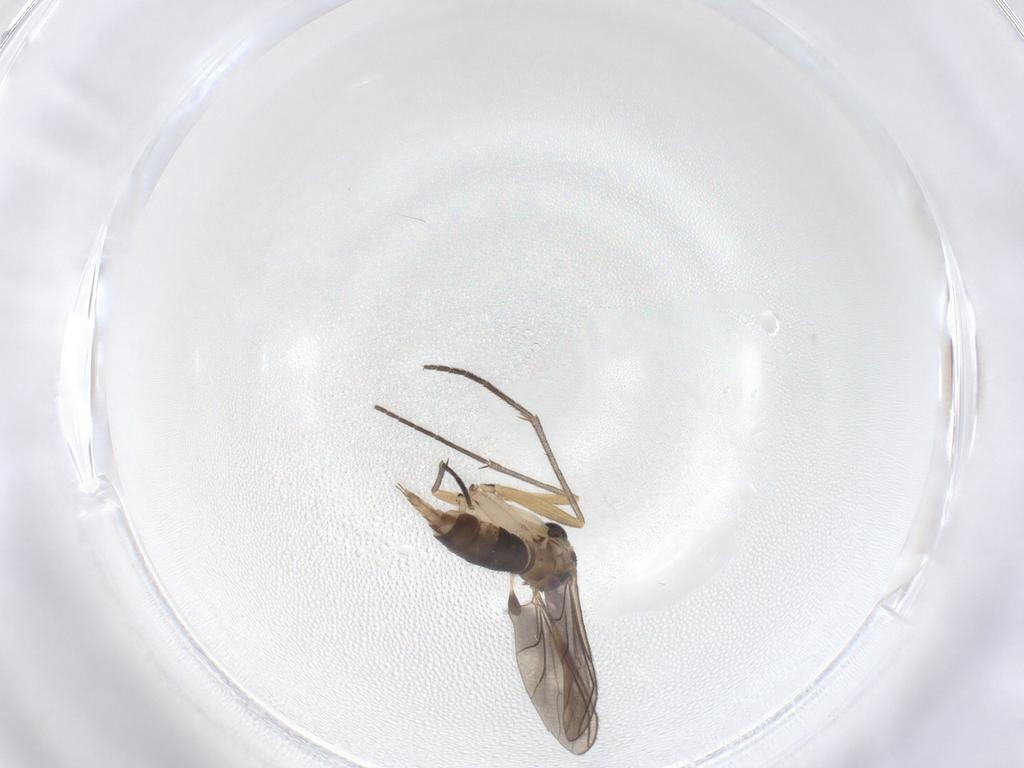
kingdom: Animalia
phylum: Arthropoda
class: Insecta
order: Diptera
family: Sciaridae
